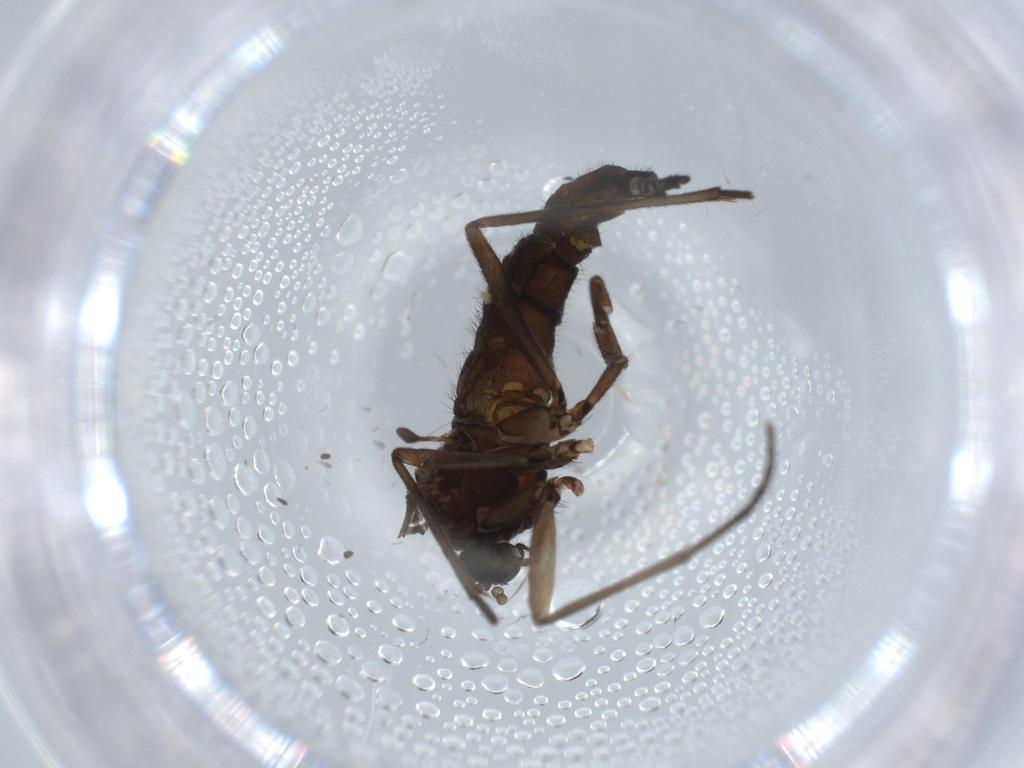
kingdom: Animalia
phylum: Arthropoda
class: Insecta
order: Diptera
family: Sciaridae
